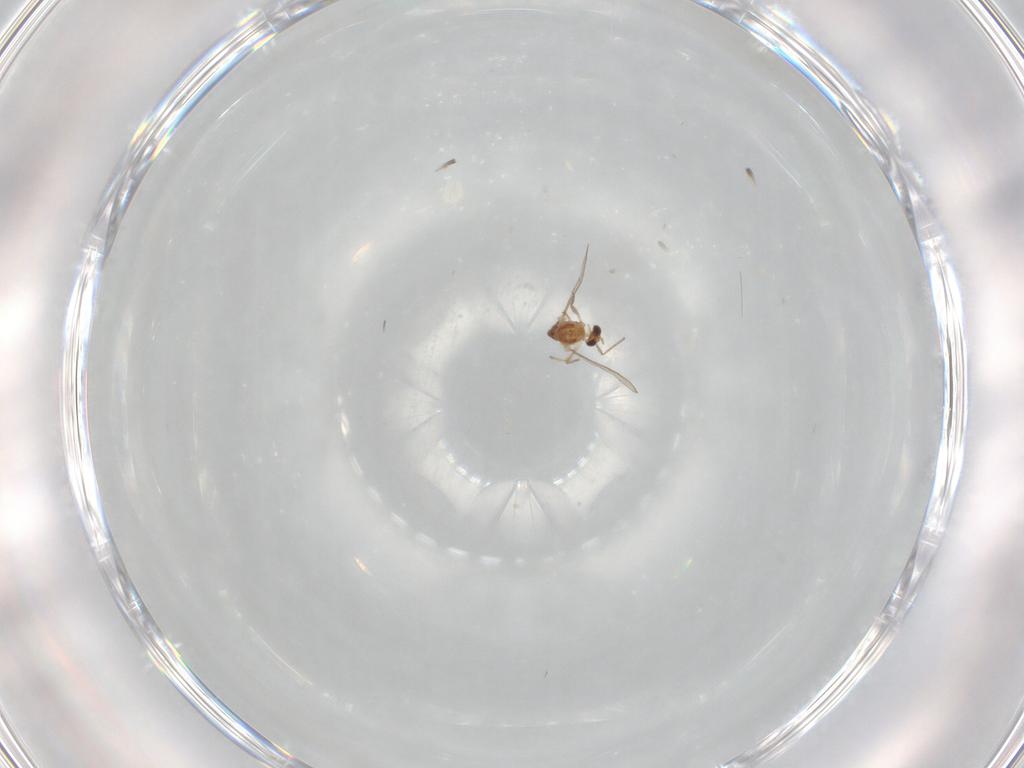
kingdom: Animalia
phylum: Arthropoda
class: Insecta
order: Diptera
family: Chironomidae
